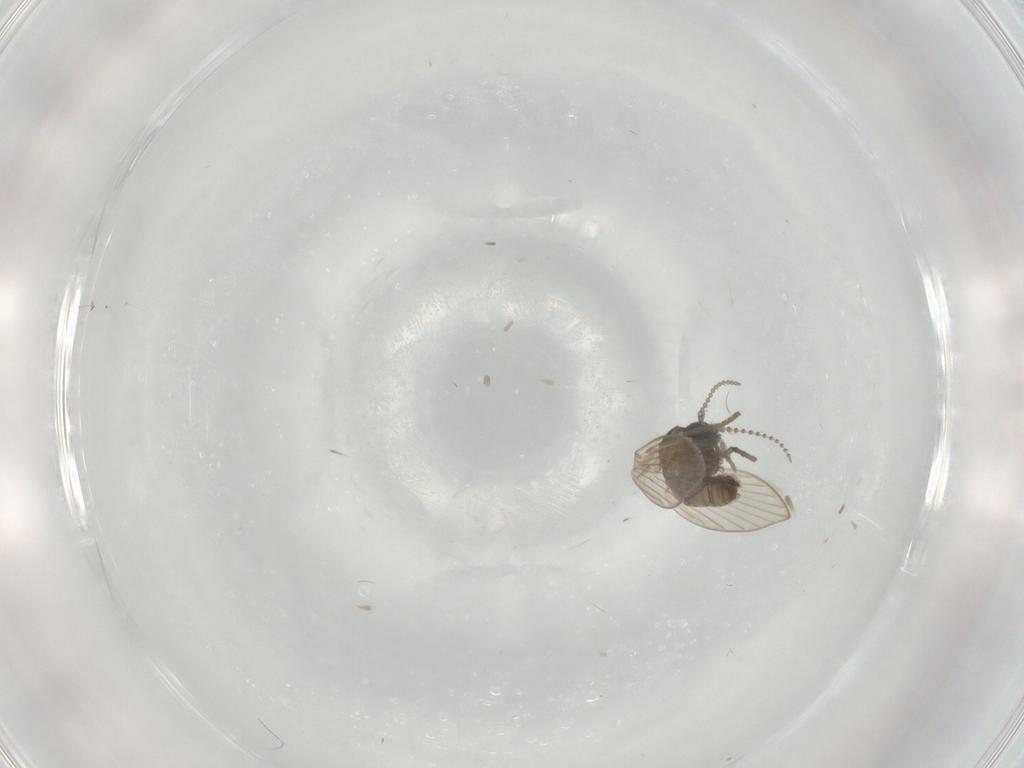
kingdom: Animalia
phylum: Arthropoda
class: Insecta
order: Diptera
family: Psychodidae
